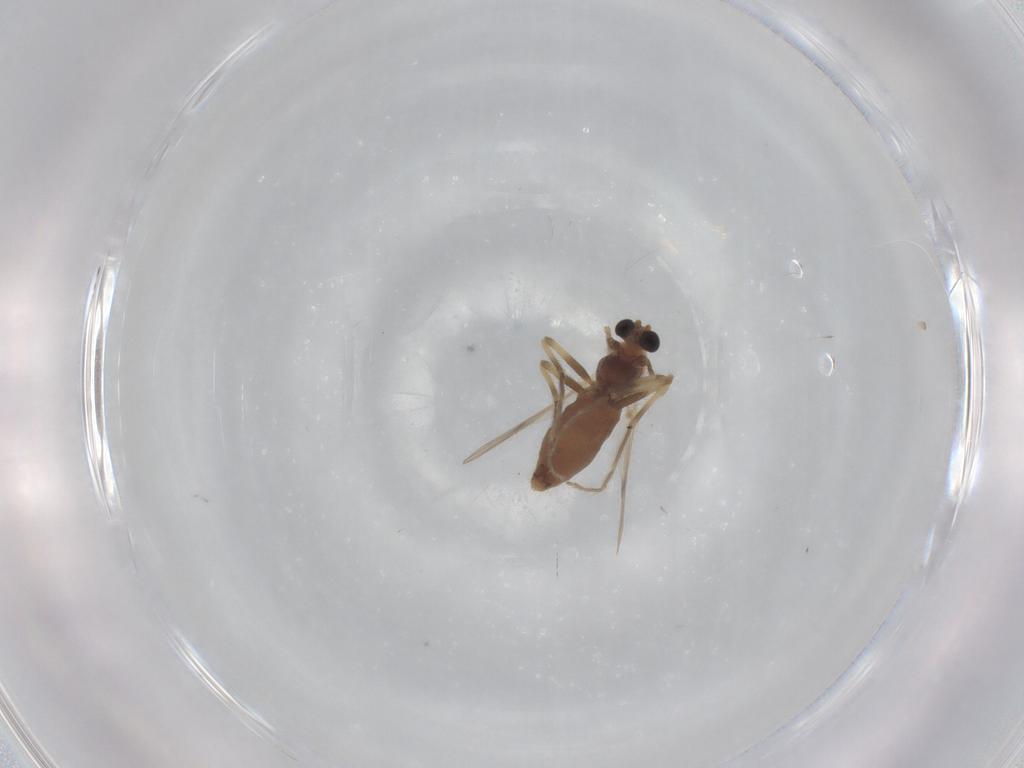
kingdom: Animalia
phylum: Arthropoda
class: Insecta
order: Diptera
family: Chironomidae
